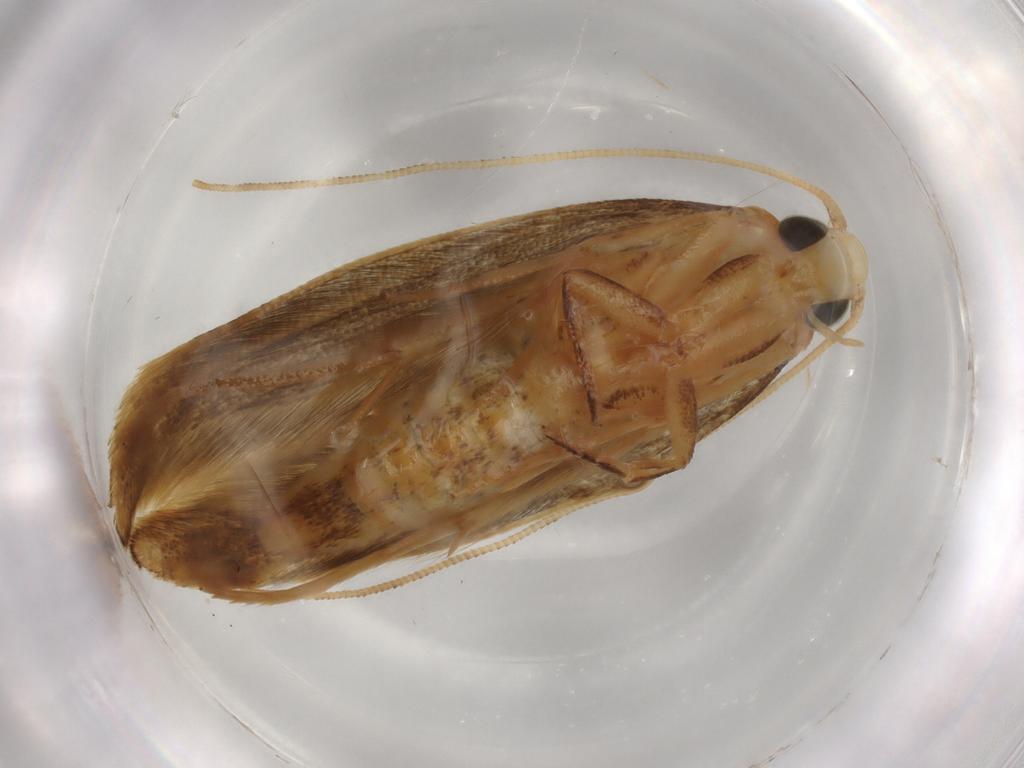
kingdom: Animalia
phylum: Arthropoda
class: Insecta
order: Lepidoptera
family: Tineidae
